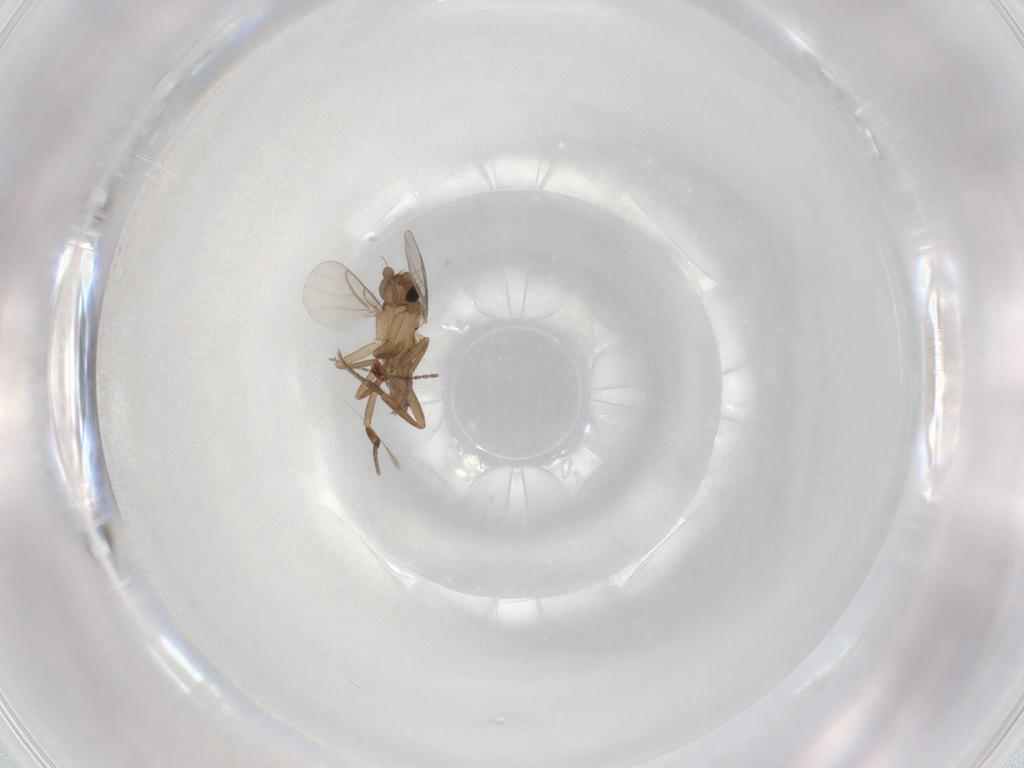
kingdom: Animalia
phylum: Arthropoda
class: Insecta
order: Diptera
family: Phoridae
